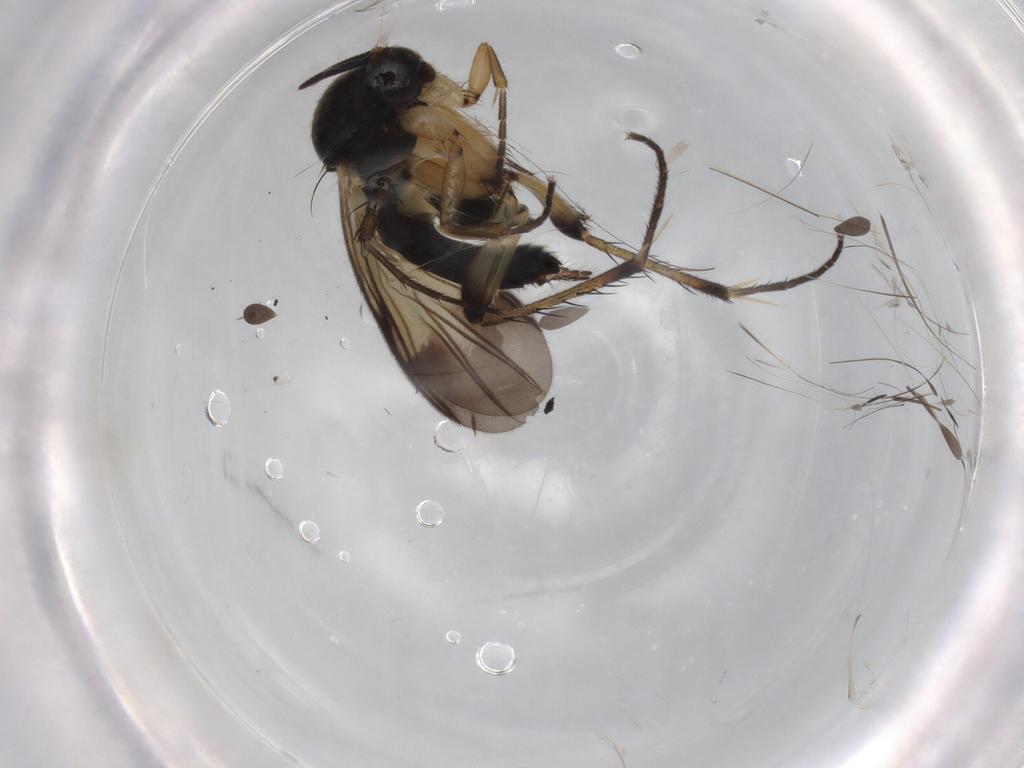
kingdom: Animalia
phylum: Arthropoda
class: Insecta
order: Diptera
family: Mycetophilidae
